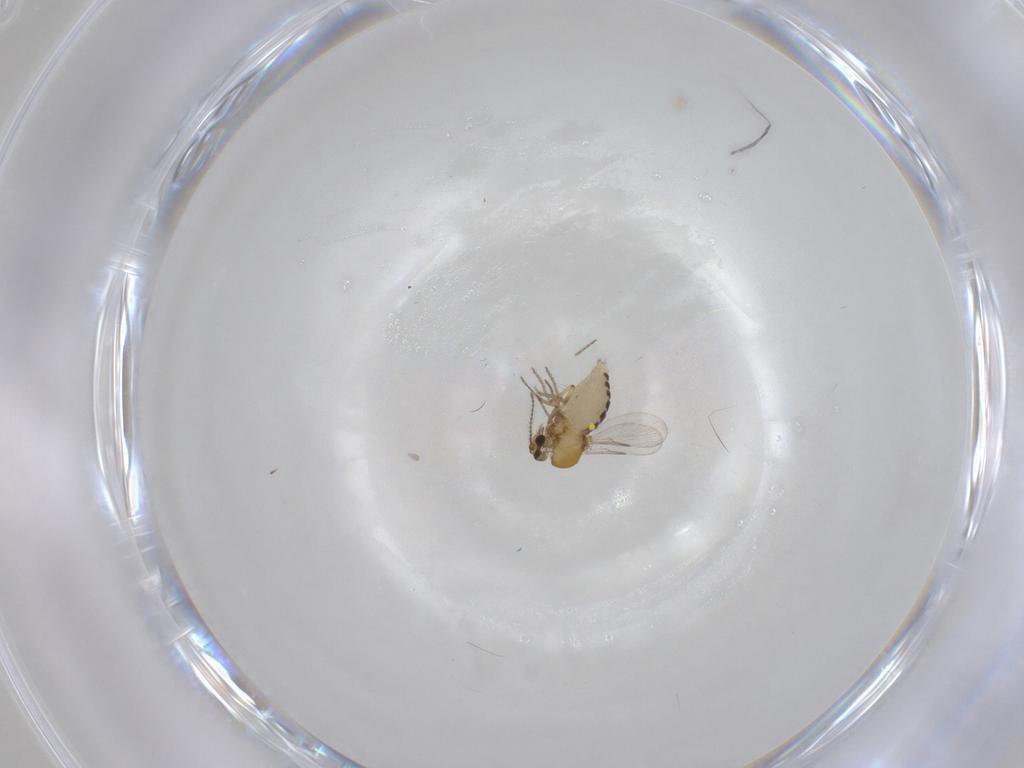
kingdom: Animalia
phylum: Arthropoda
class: Insecta
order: Diptera
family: Ceratopogonidae
